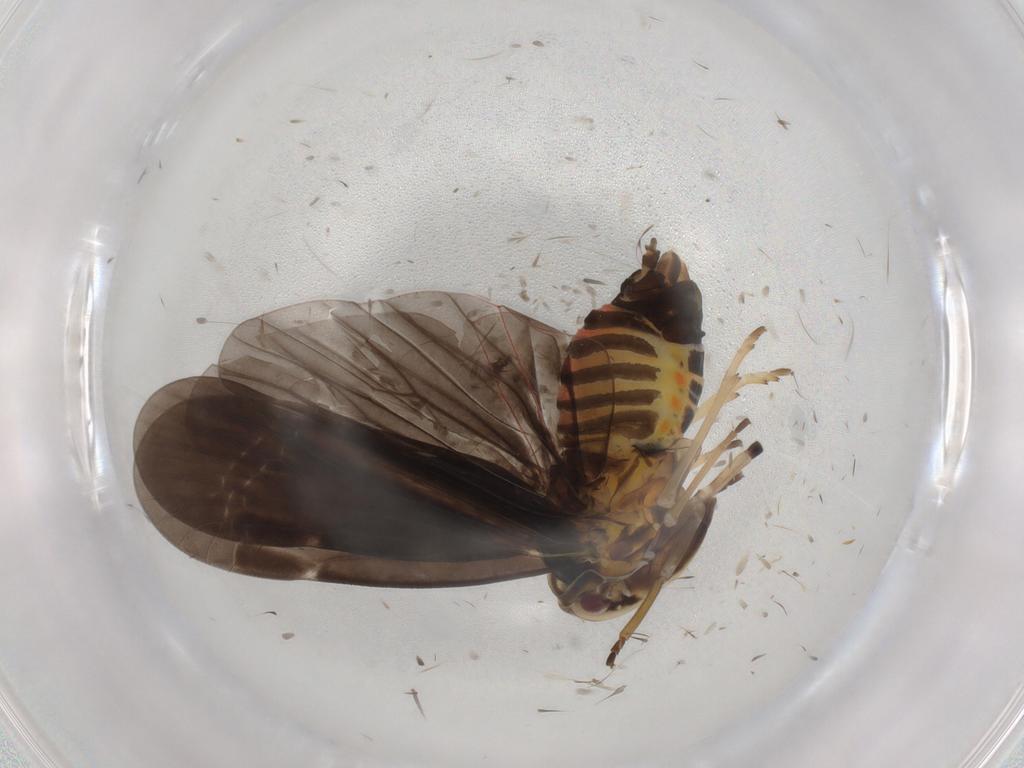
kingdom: Animalia
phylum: Arthropoda
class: Insecta
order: Hemiptera
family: Derbidae
